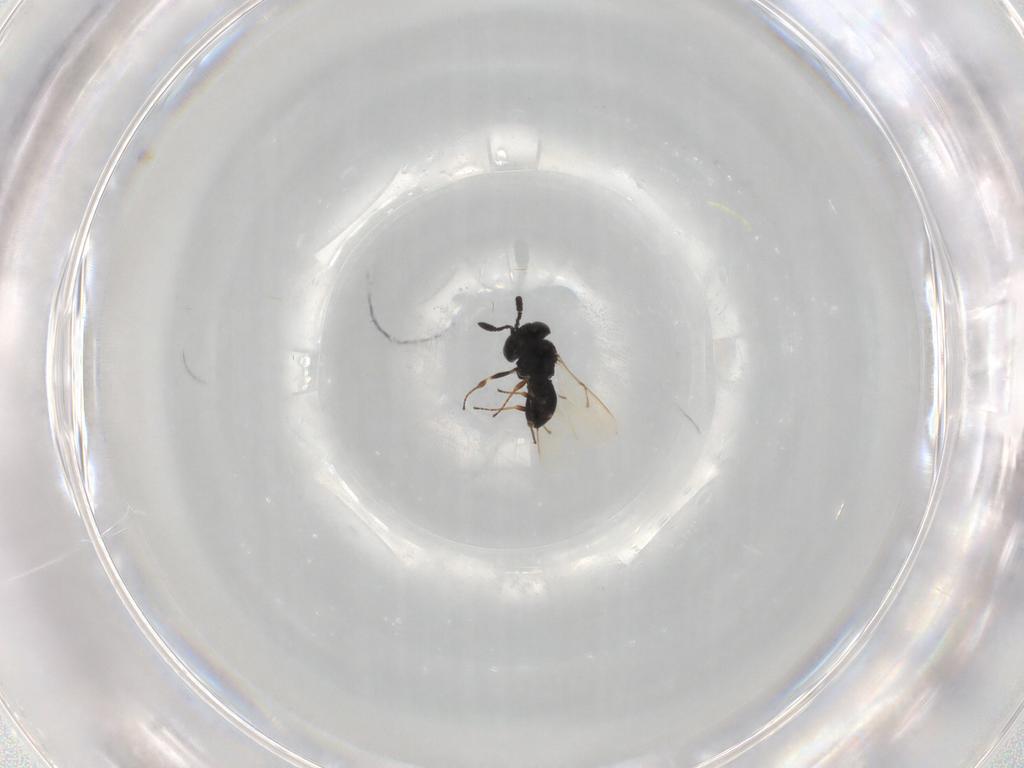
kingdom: Animalia
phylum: Arthropoda
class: Insecta
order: Hymenoptera
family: Scelionidae
